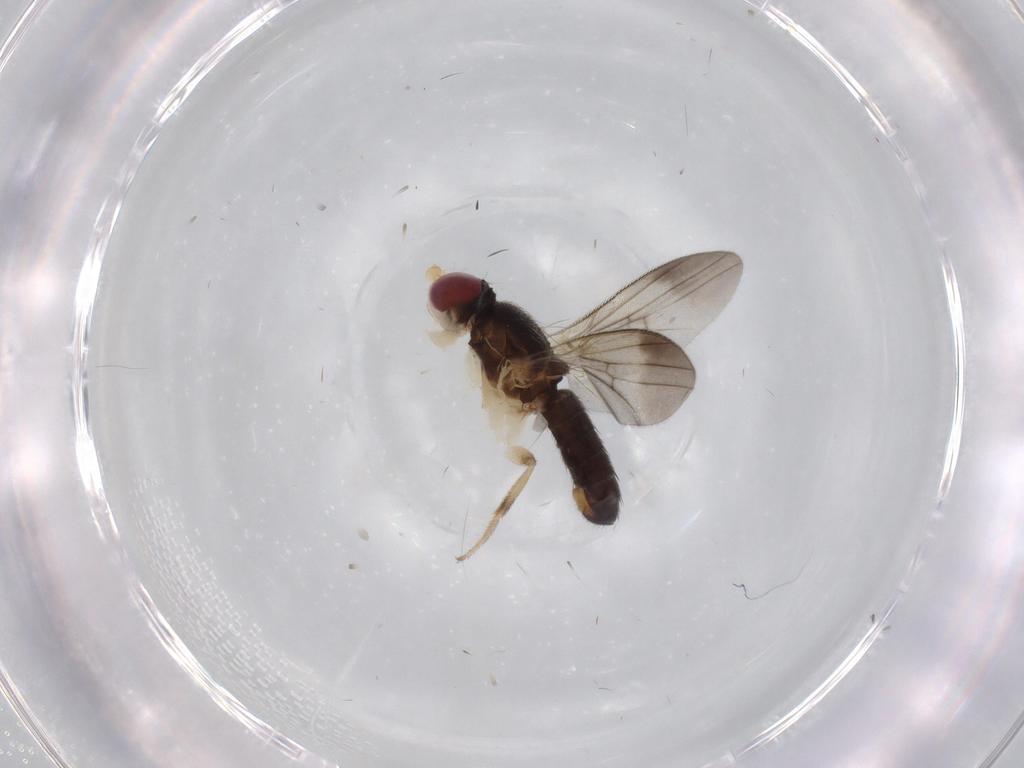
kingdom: Animalia
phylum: Arthropoda
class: Insecta
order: Diptera
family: Clusiidae
